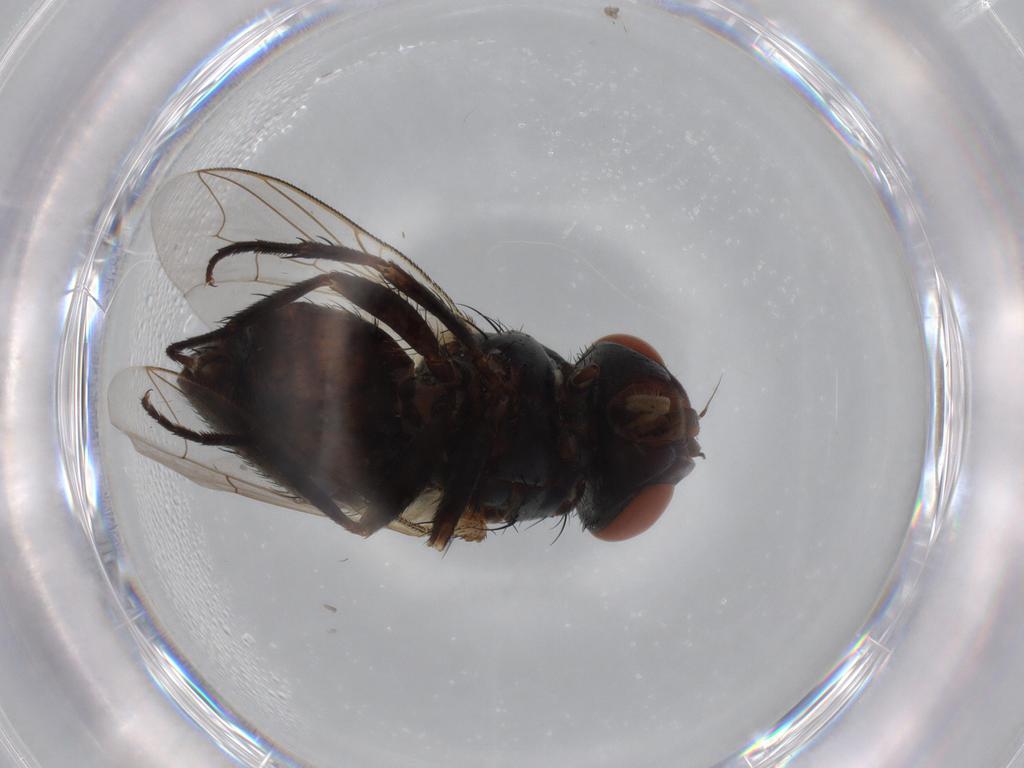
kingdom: Animalia
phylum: Arthropoda
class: Insecta
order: Diptera
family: Sarcophagidae
